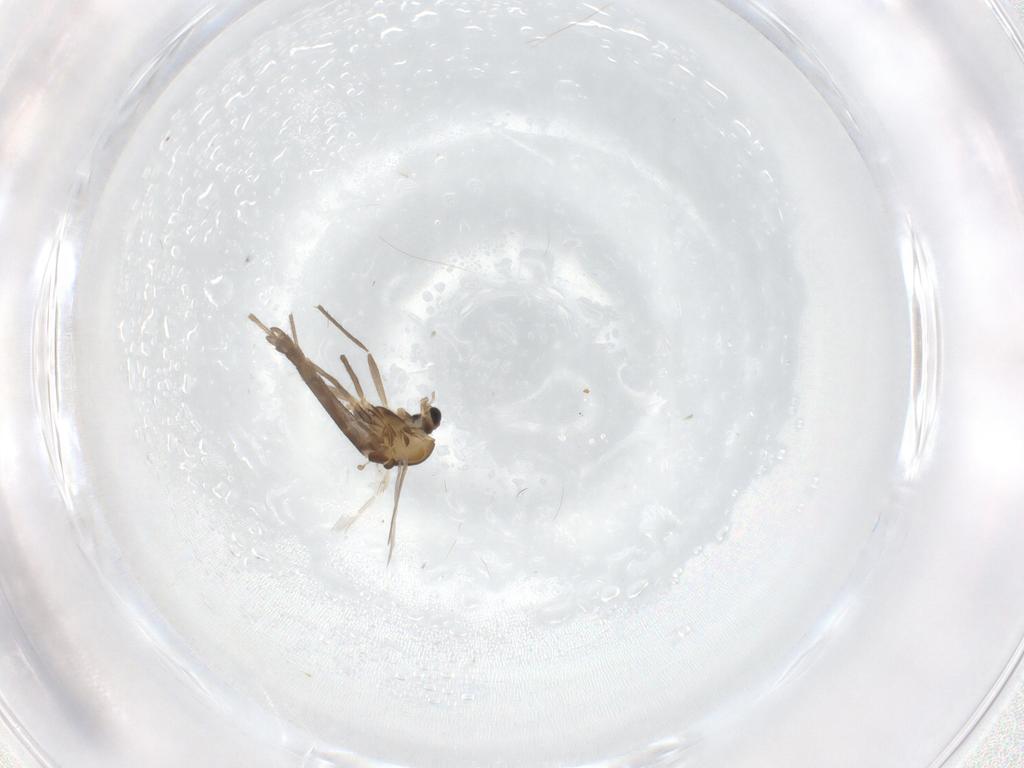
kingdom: Animalia
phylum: Arthropoda
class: Insecta
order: Diptera
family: Chironomidae
